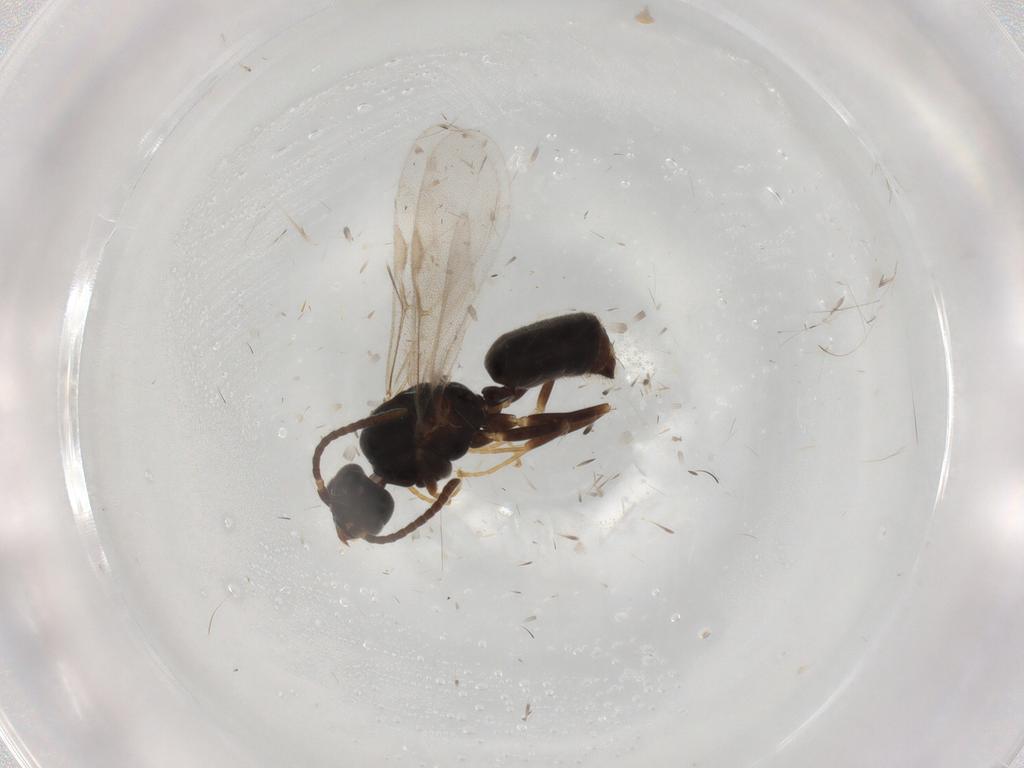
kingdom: Animalia
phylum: Arthropoda
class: Insecta
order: Hymenoptera
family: Formicidae
